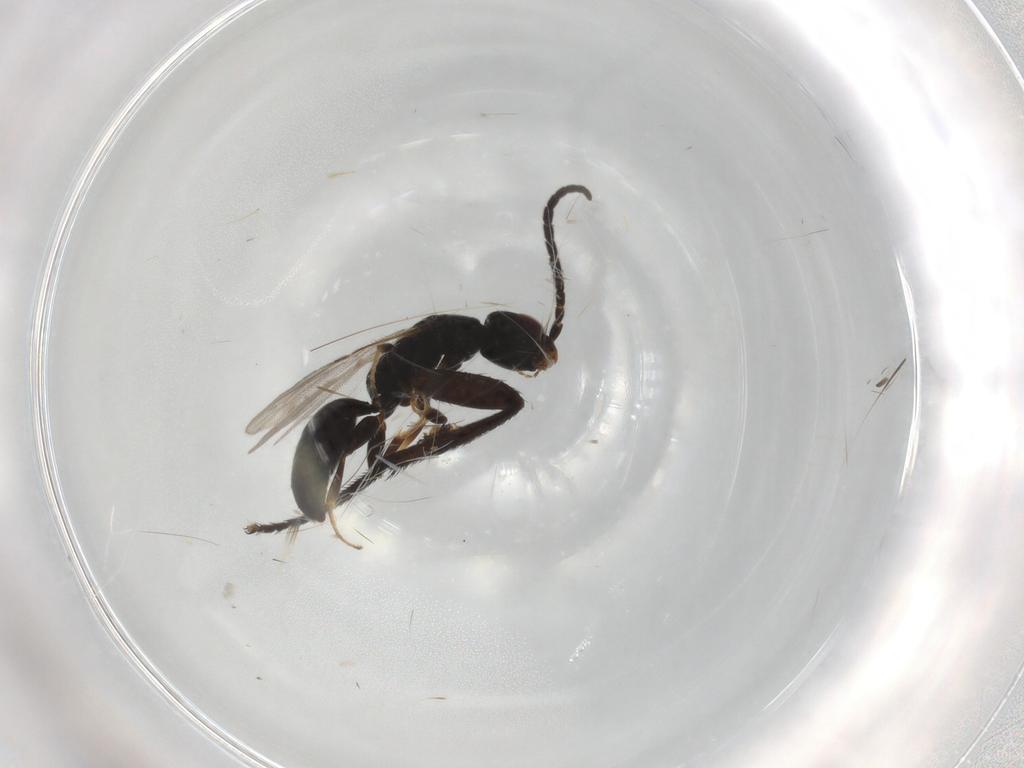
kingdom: Animalia
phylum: Arthropoda
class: Insecta
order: Hymenoptera
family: Bethylidae
